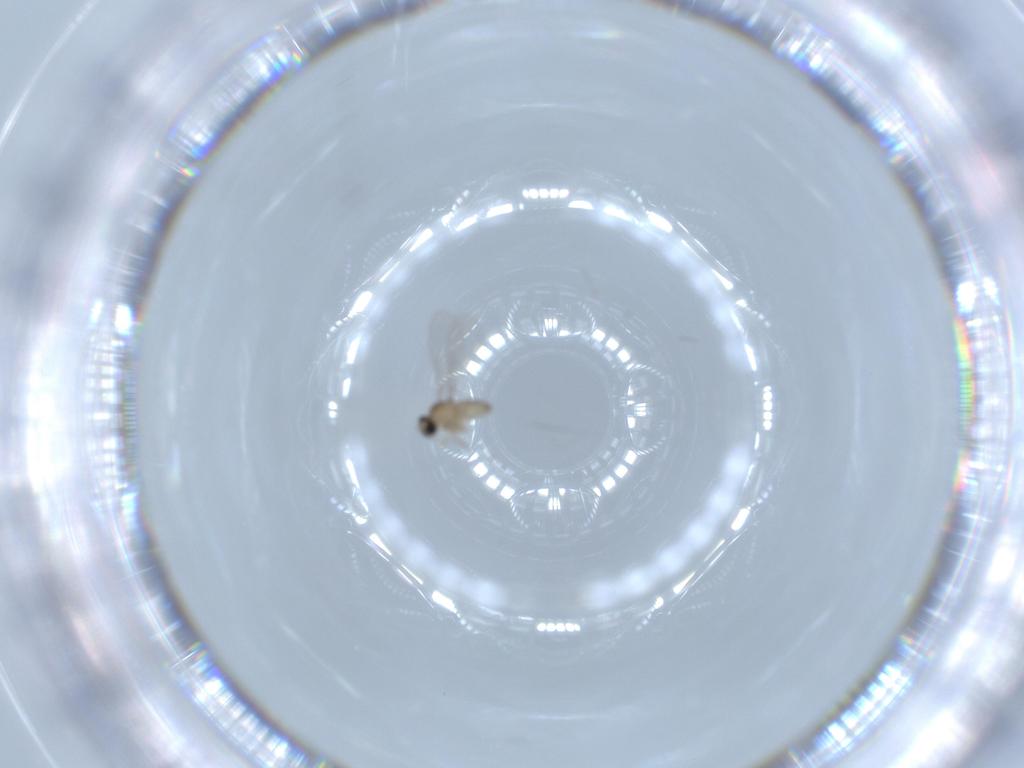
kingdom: Animalia
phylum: Arthropoda
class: Insecta
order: Diptera
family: Cecidomyiidae
